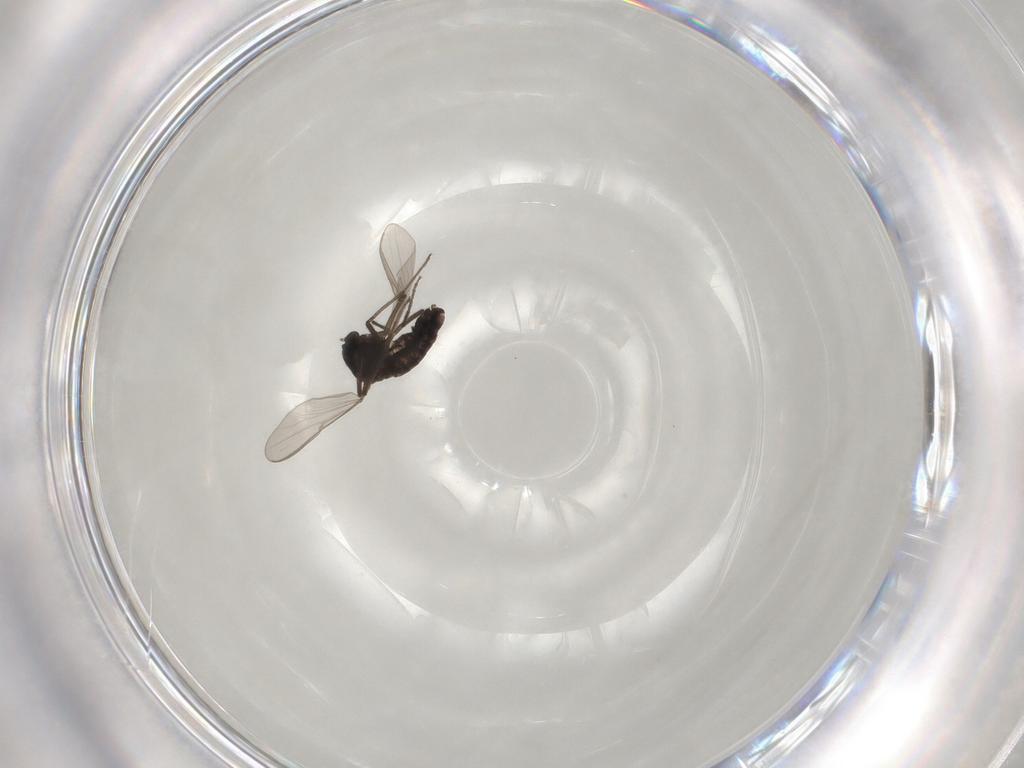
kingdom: Animalia
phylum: Arthropoda
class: Insecta
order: Diptera
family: Chironomidae
